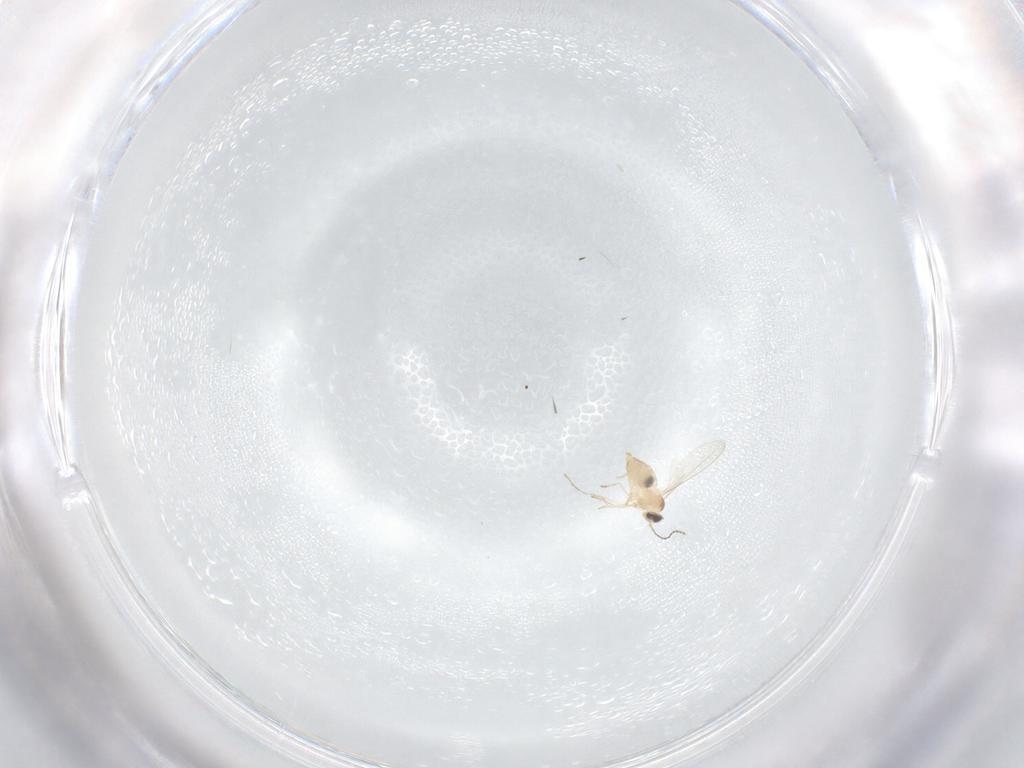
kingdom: Animalia
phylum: Arthropoda
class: Insecta
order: Diptera
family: Cecidomyiidae
